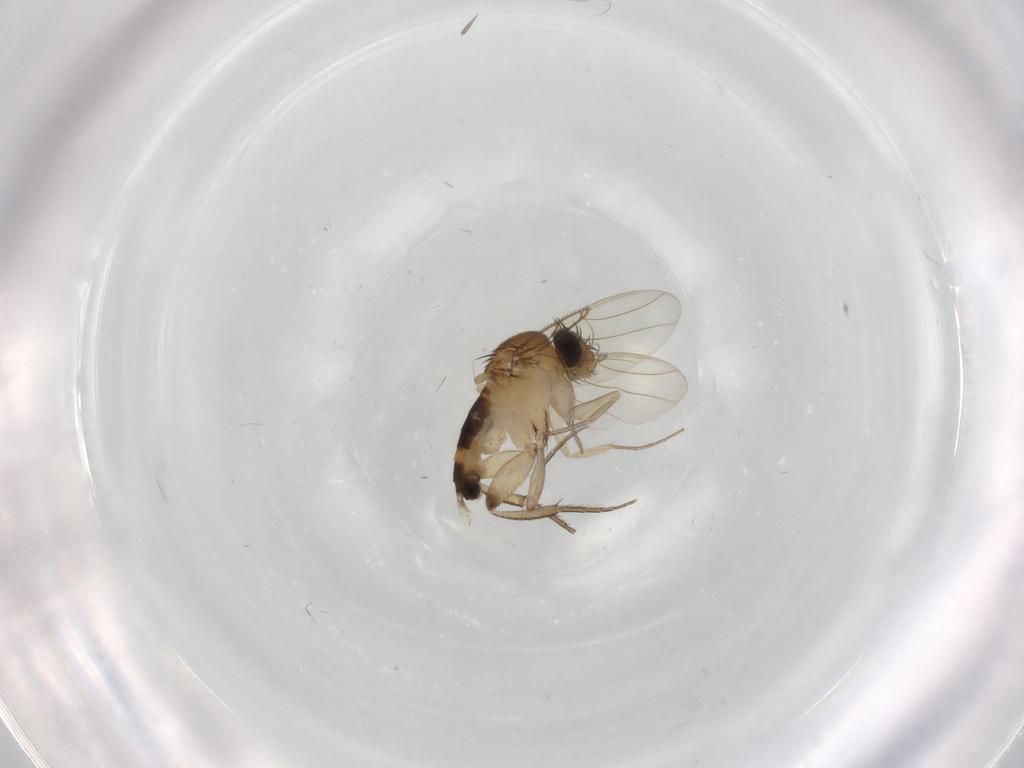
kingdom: Animalia
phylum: Arthropoda
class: Insecta
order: Diptera
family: Phoridae
